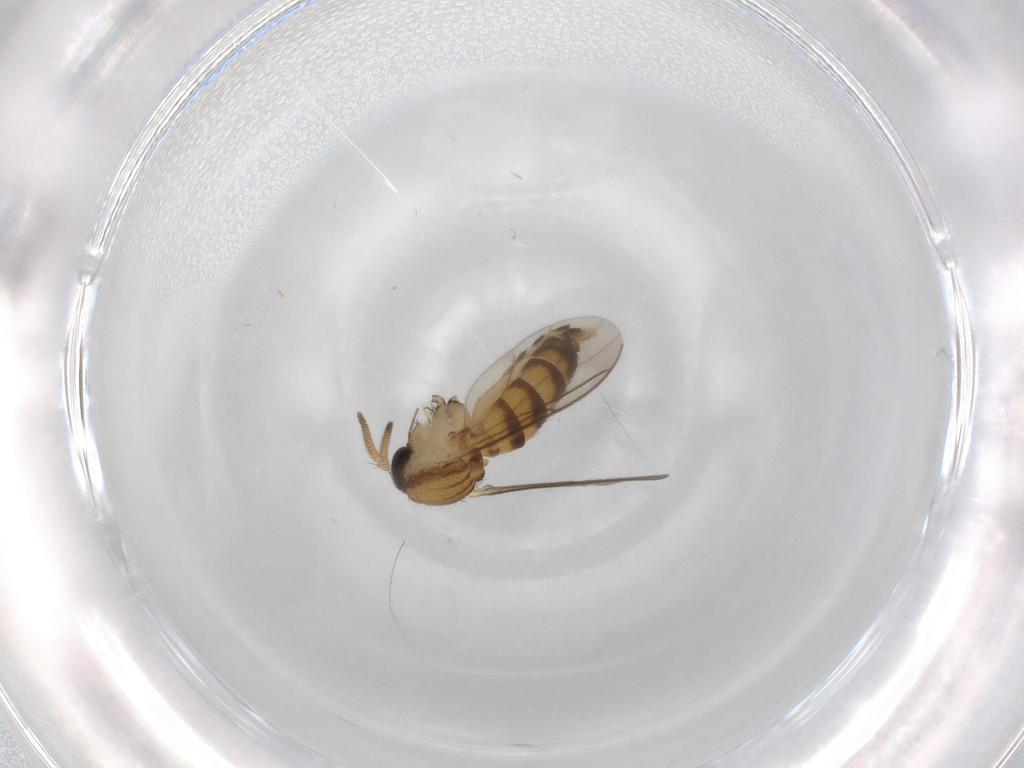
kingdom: Animalia
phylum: Arthropoda
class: Insecta
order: Diptera
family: Mycetophilidae
